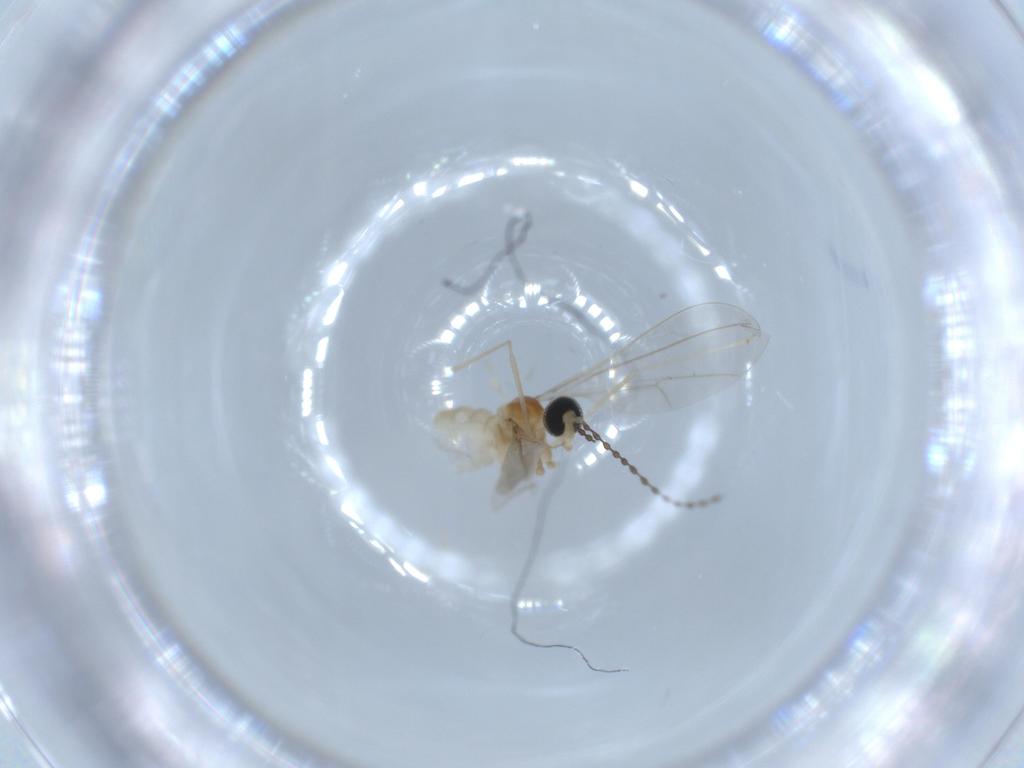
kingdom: Animalia
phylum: Arthropoda
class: Insecta
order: Diptera
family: Cecidomyiidae
